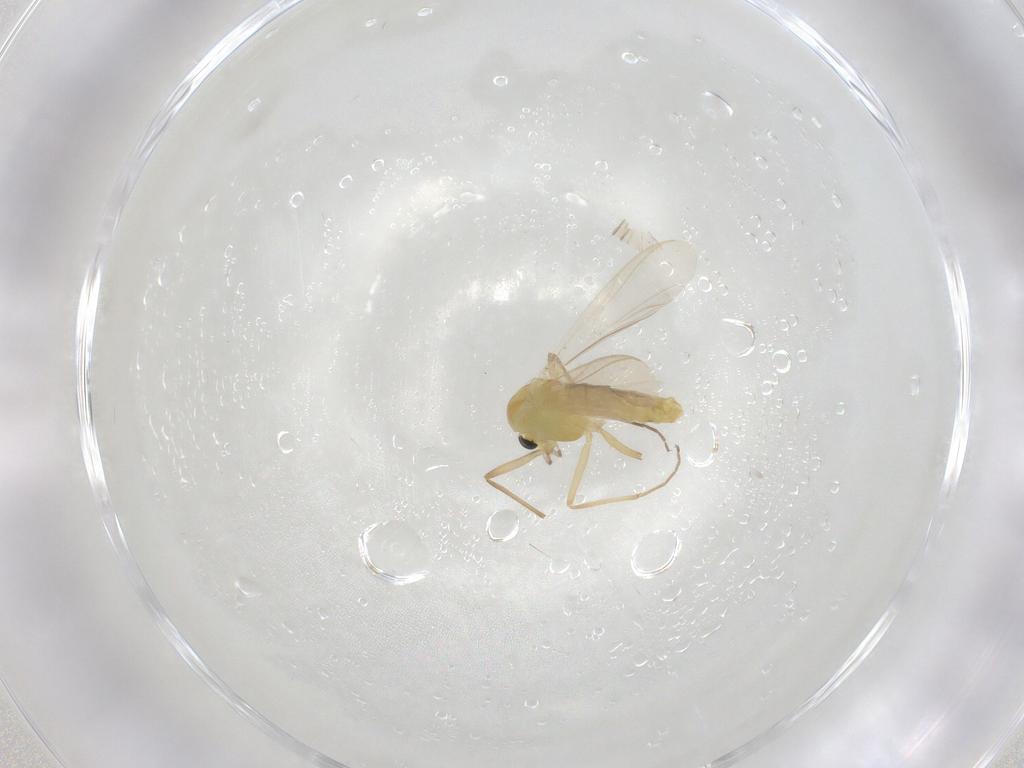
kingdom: Animalia
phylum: Arthropoda
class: Insecta
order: Diptera
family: Chironomidae
